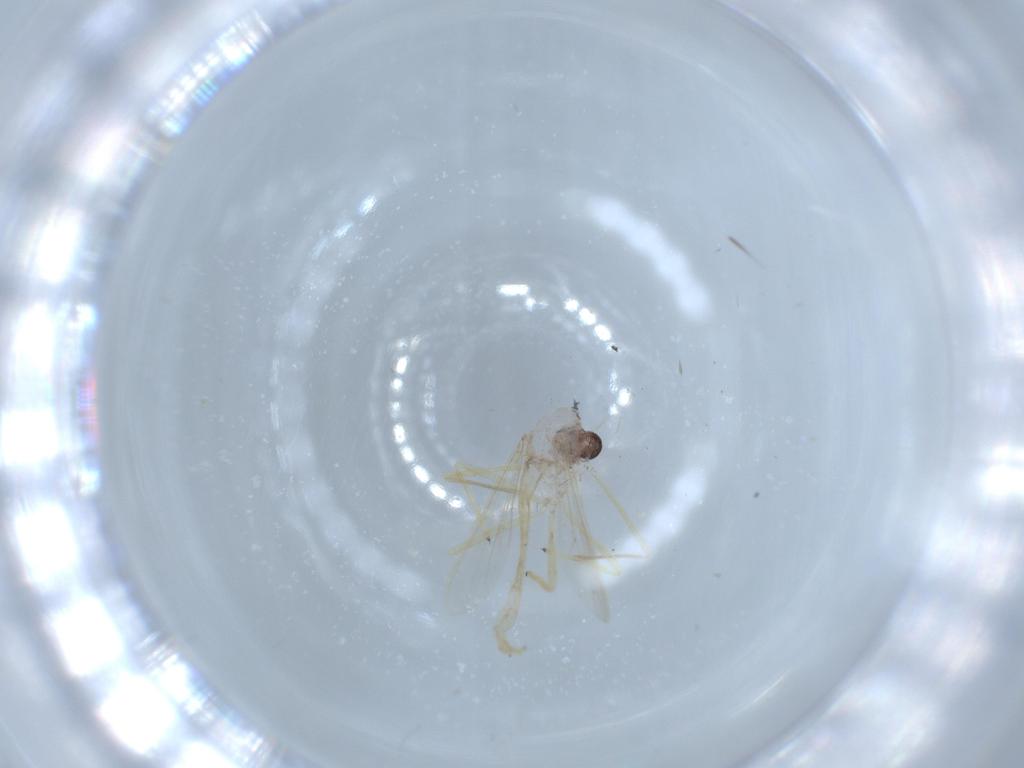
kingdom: Animalia
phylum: Arthropoda
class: Insecta
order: Diptera
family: Chironomidae
